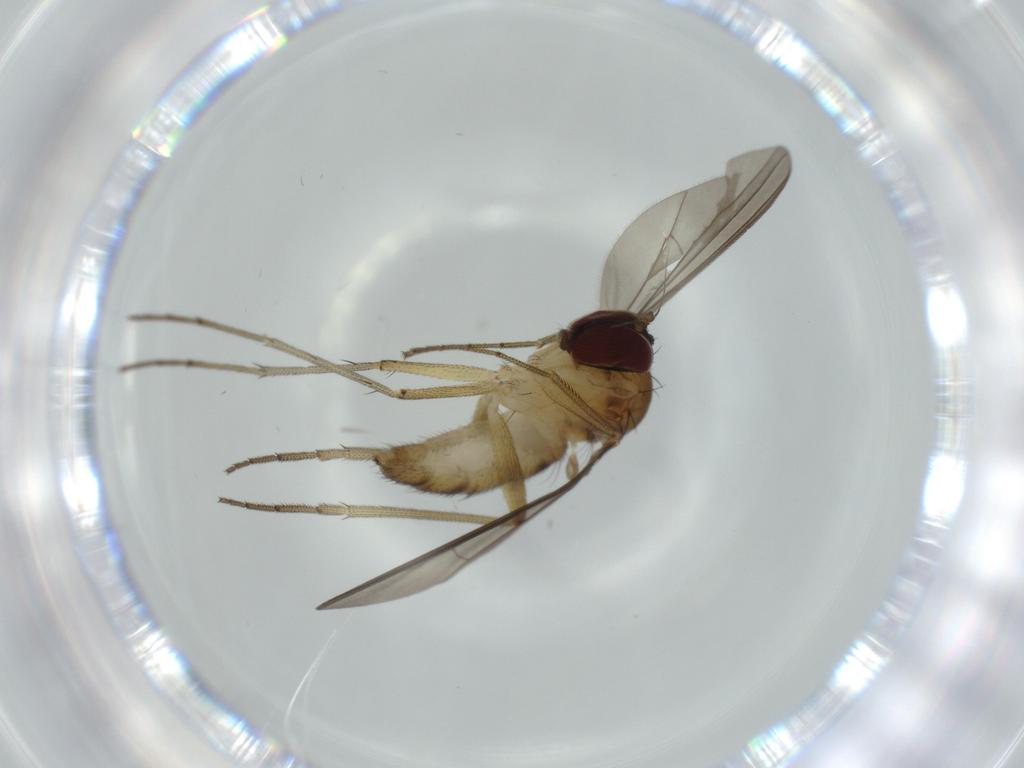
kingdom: Animalia
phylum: Arthropoda
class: Insecta
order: Diptera
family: Dolichopodidae
